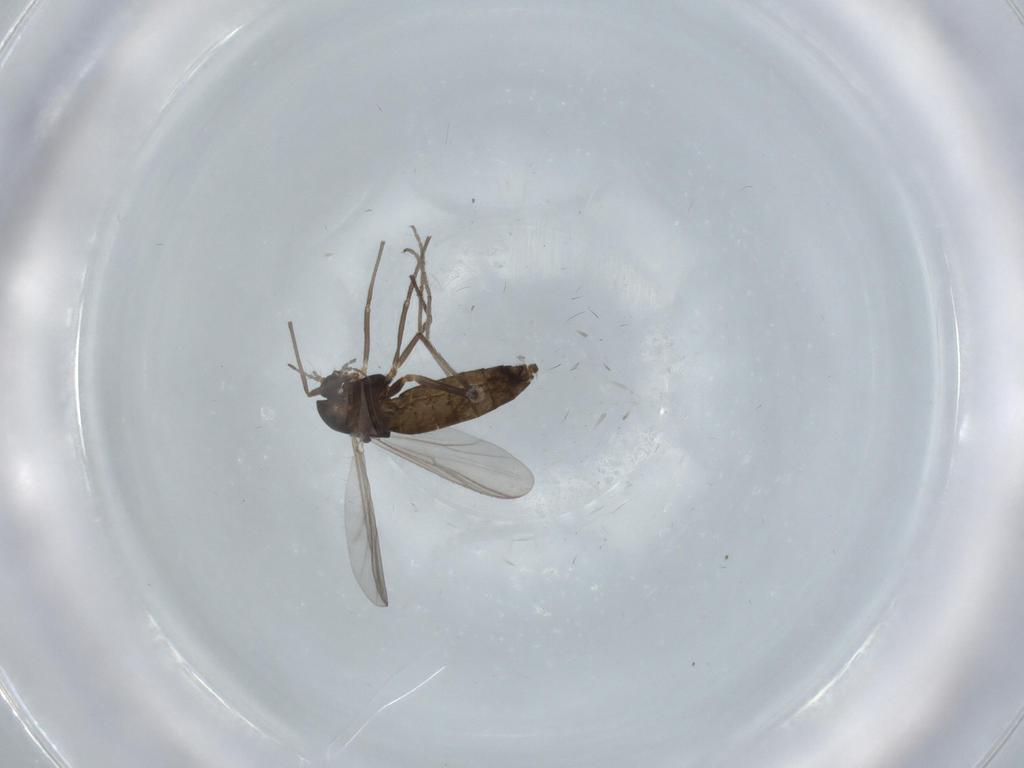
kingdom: Animalia
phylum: Arthropoda
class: Insecta
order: Diptera
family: Chironomidae
